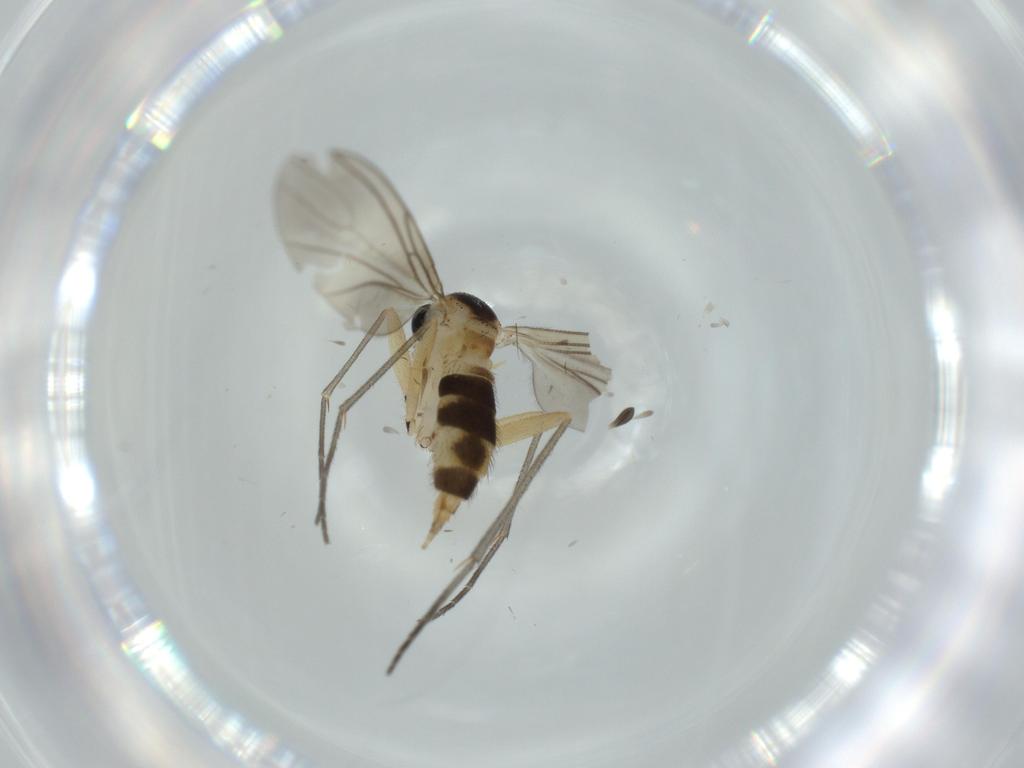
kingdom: Animalia
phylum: Arthropoda
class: Insecta
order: Diptera
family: Sciaridae
